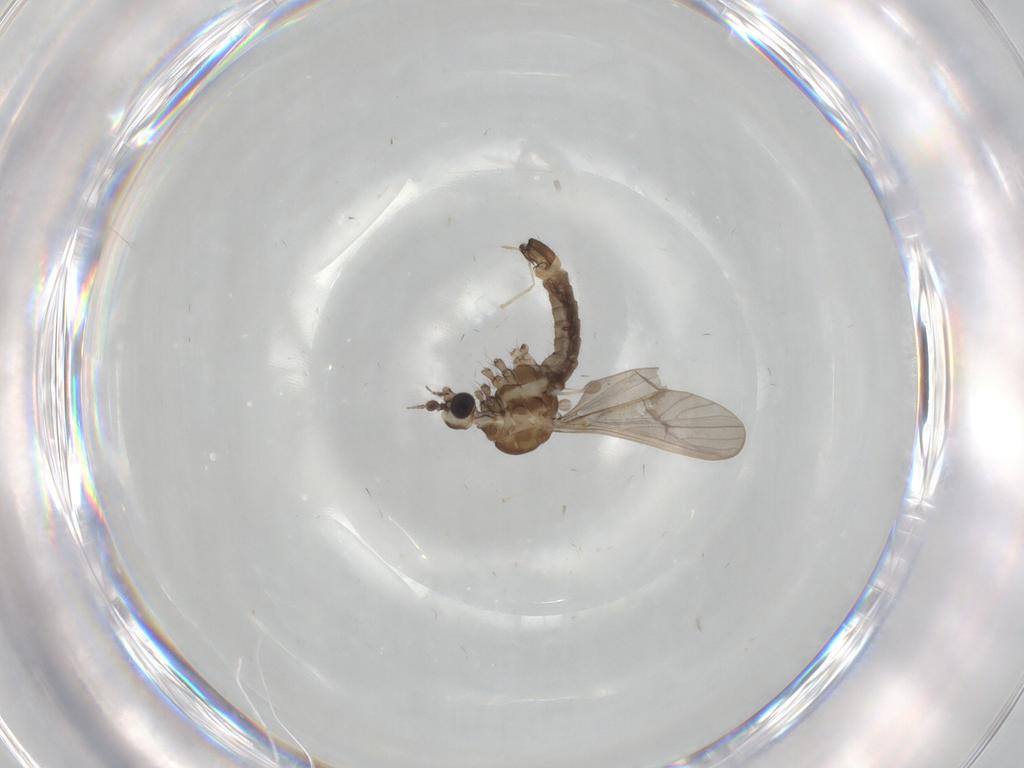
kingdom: Animalia
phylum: Arthropoda
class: Insecta
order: Diptera
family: Limoniidae
